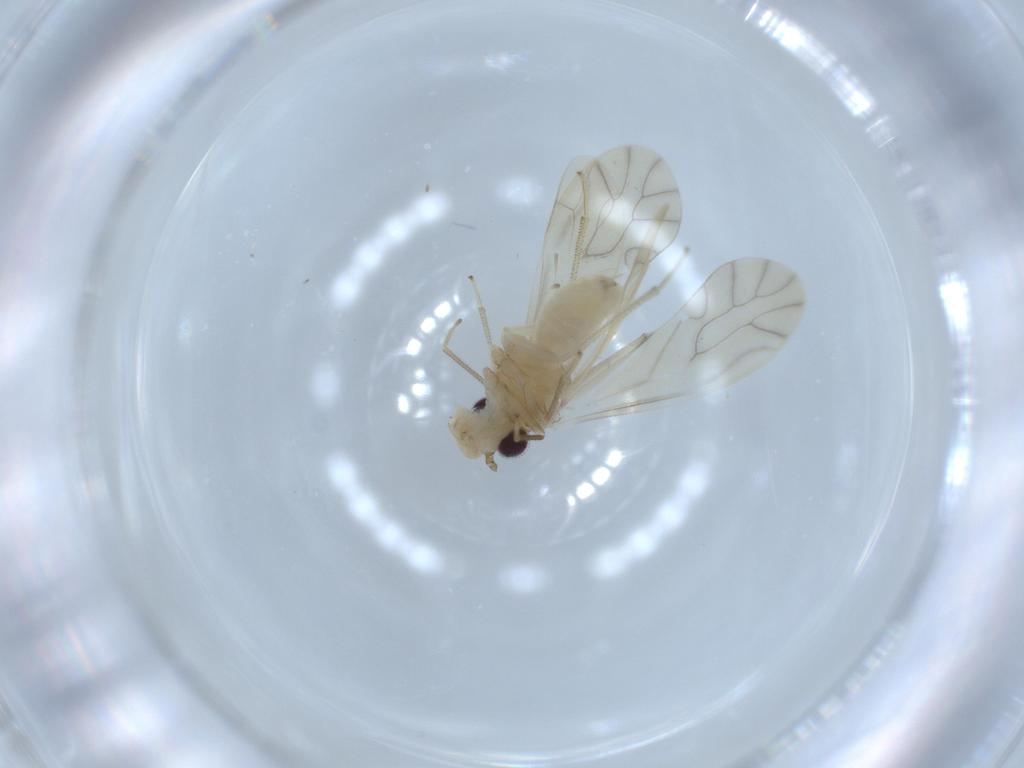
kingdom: Animalia
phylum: Arthropoda
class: Insecta
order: Psocodea
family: Caeciliusidae
